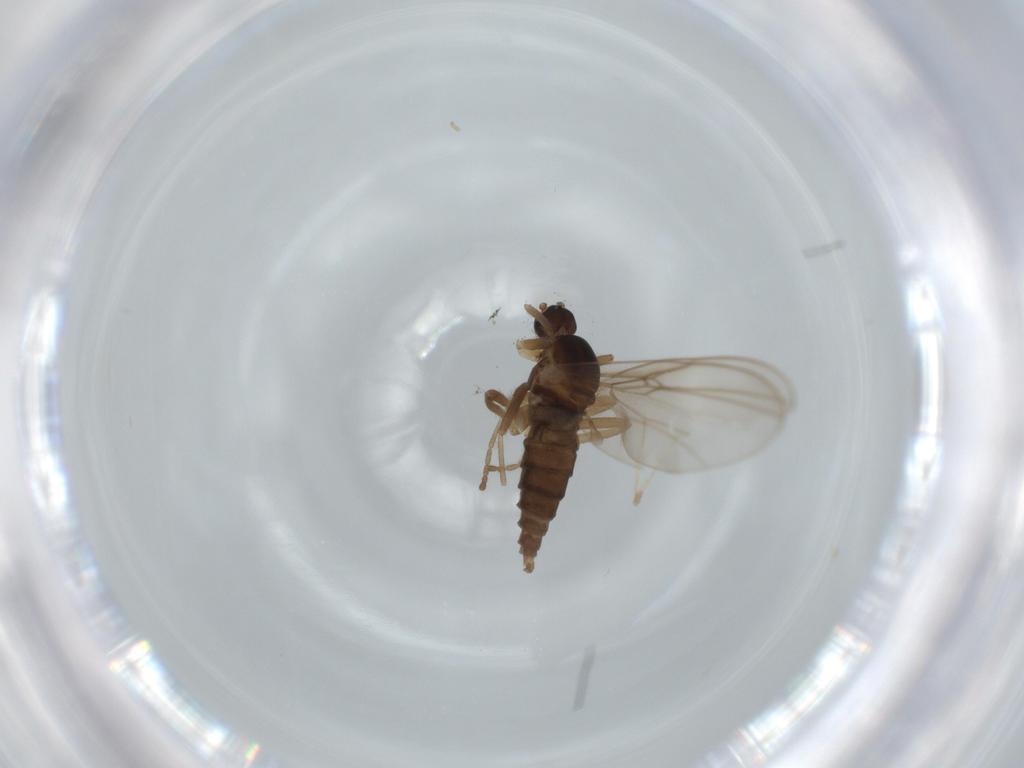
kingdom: Animalia
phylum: Arthropoda
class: Insecta
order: Diptera
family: Cecidomyiidae
